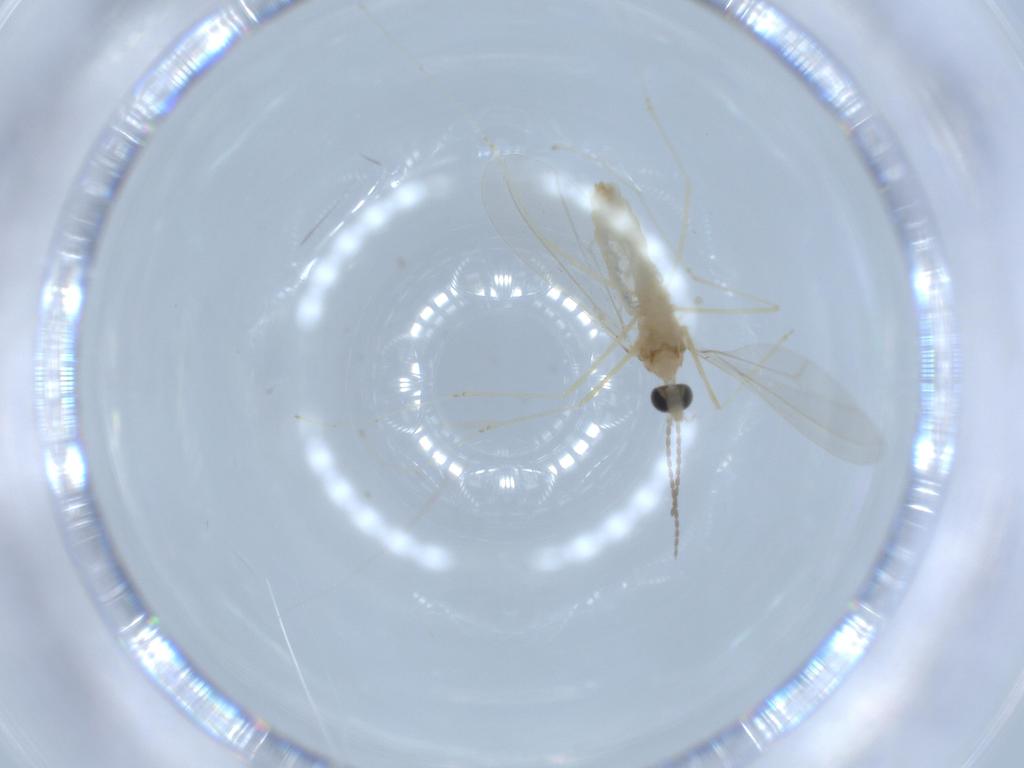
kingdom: Animalia
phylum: Arthropoda
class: Insecta
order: Diptera
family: Cecidomyiidae
